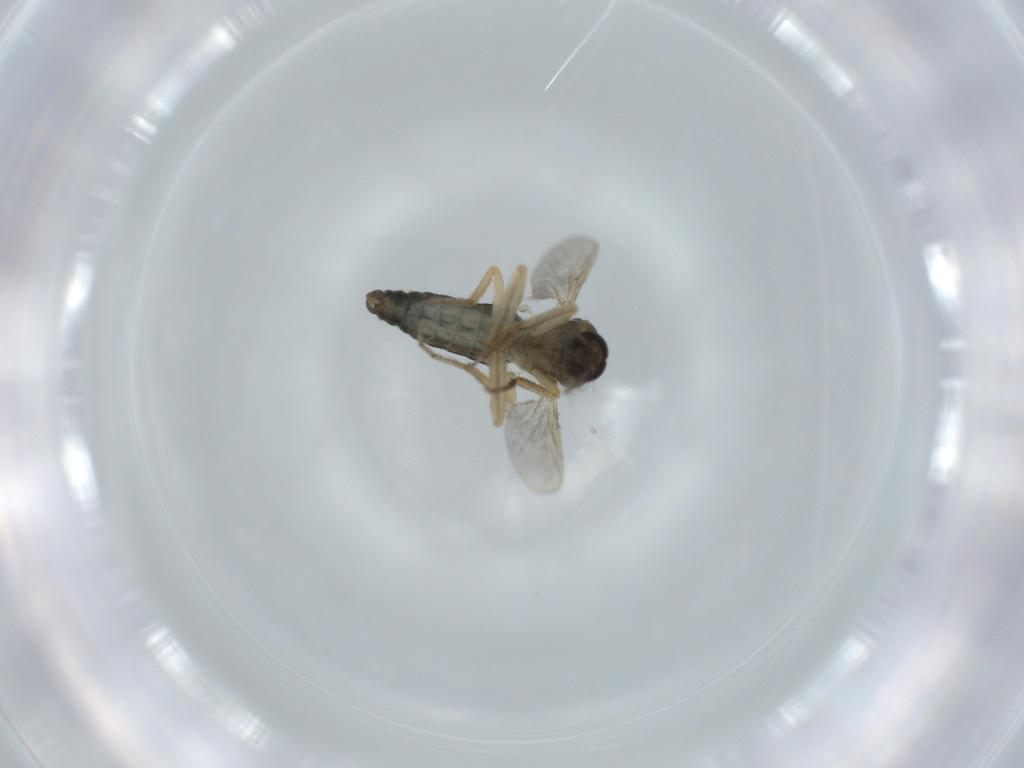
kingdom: Animalia
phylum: Arthropoda
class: Insecta
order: Diptera
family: Ceratopogonidae
